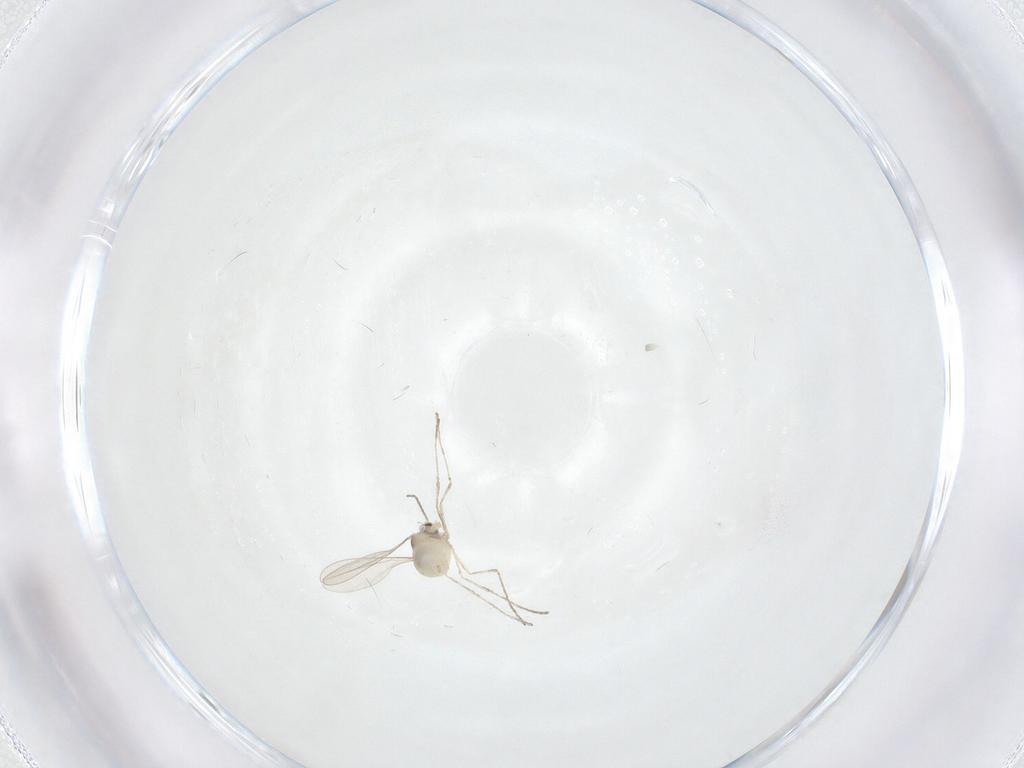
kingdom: Animalia
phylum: Arthropoda
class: Insecta
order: Diptera
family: Cecidomyiidae
